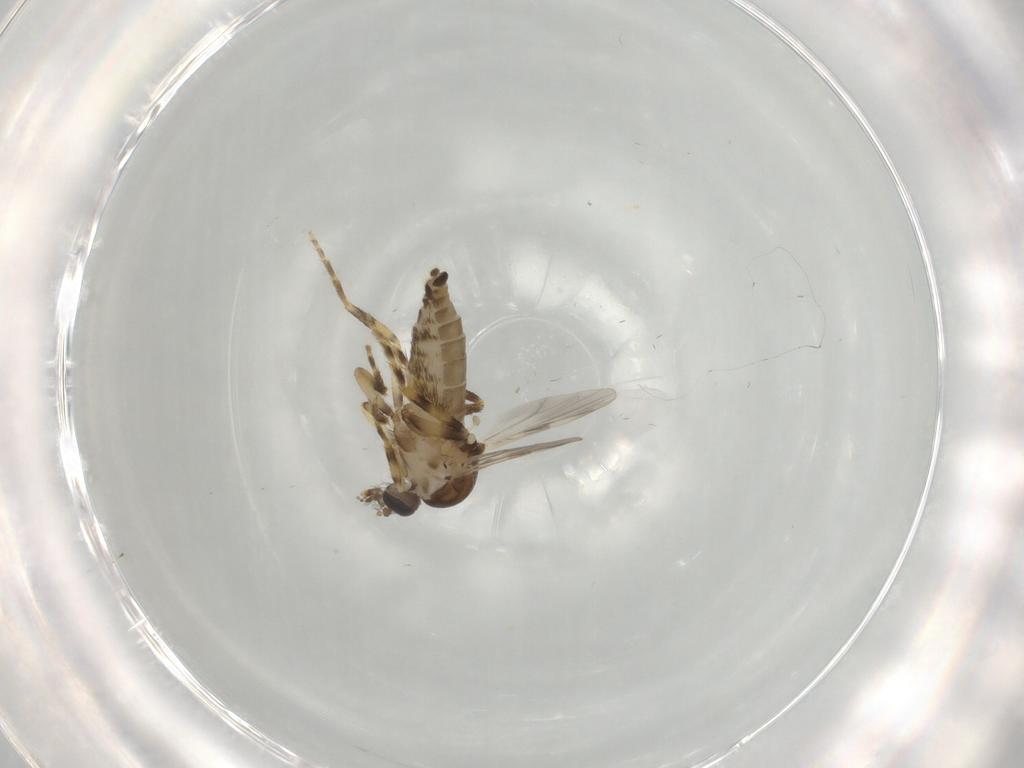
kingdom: Animalia
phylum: Arthropoda
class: Insecta
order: Diptera
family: Ceratopogonidae
